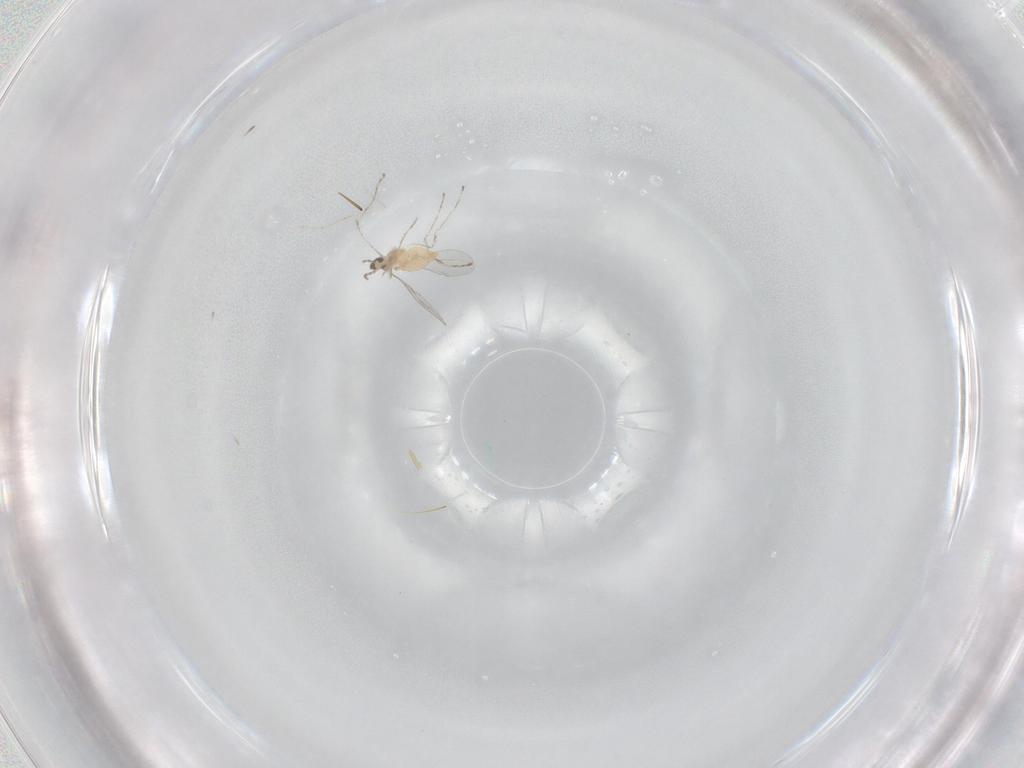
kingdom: Animalia
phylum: Arthropoda
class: Insecta
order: Diptera
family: Cecidomyiidae
